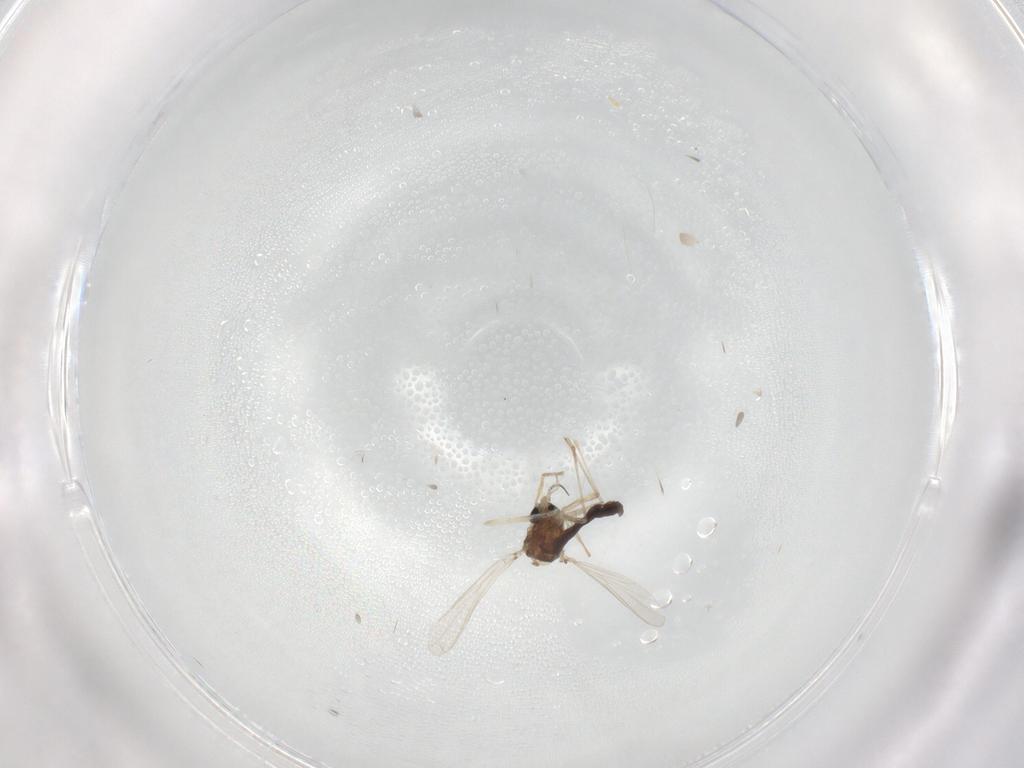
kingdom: Animalia
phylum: Arthropoda
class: Insecta
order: Diptera
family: Chironomidae
